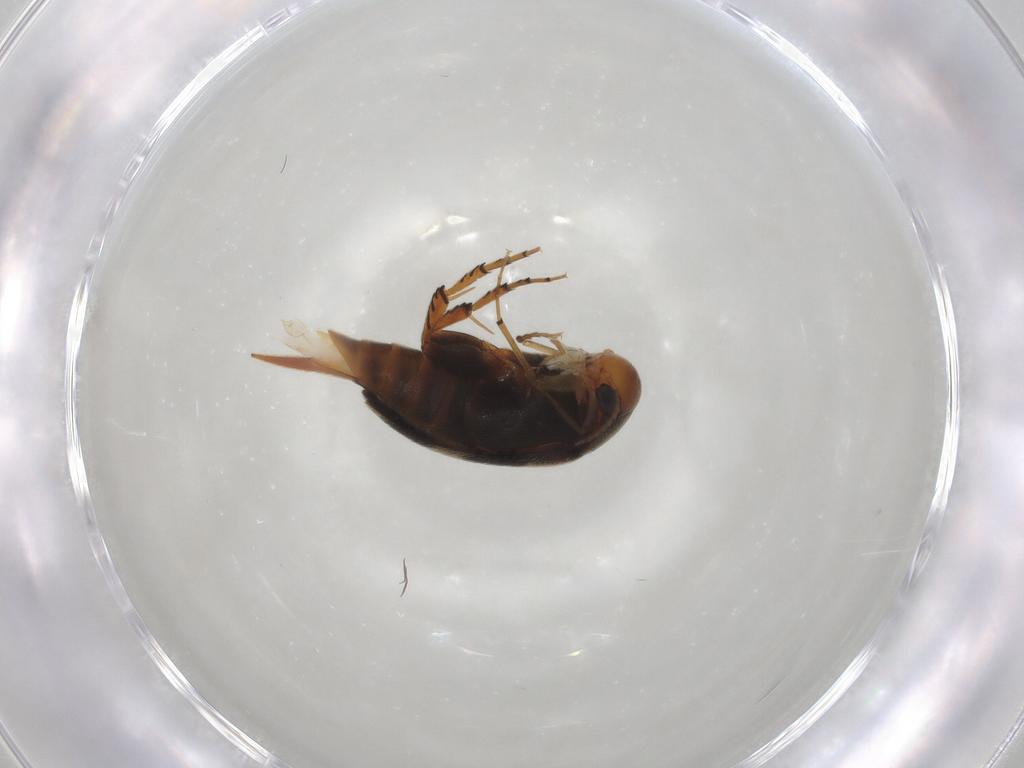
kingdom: Animalia
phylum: Arthropoda
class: Insecta
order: Coleoptera
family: Mordellidae
